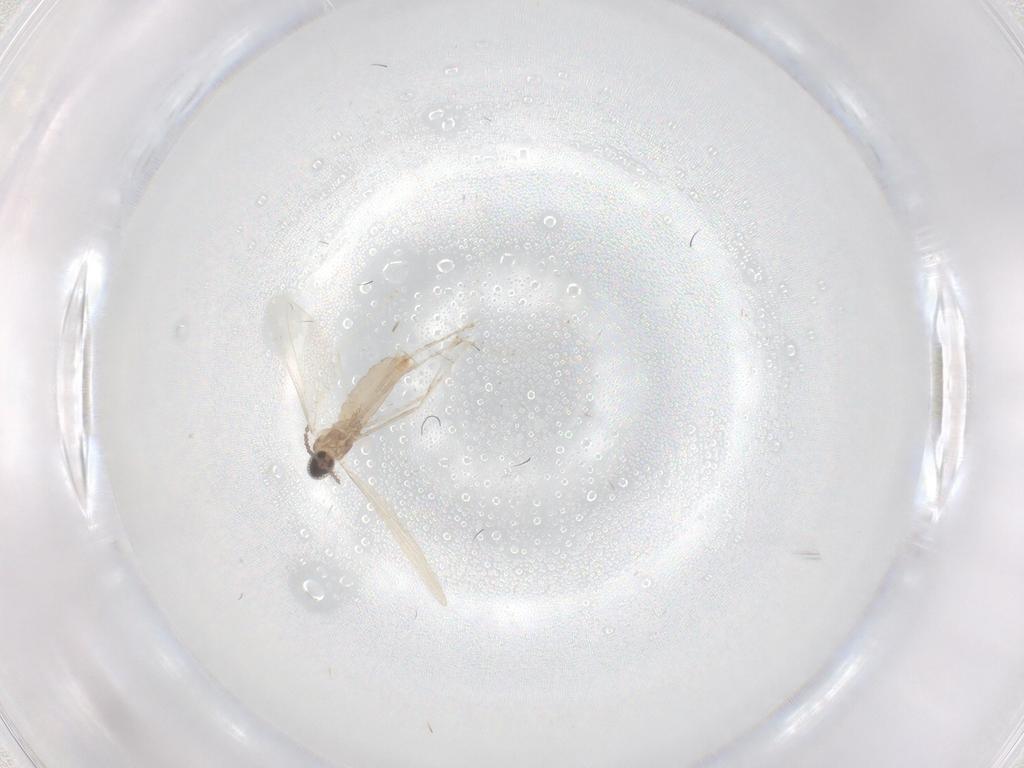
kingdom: Animalia
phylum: Arthropoda
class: Insecta
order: Diptera
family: Cecidomyiidae
